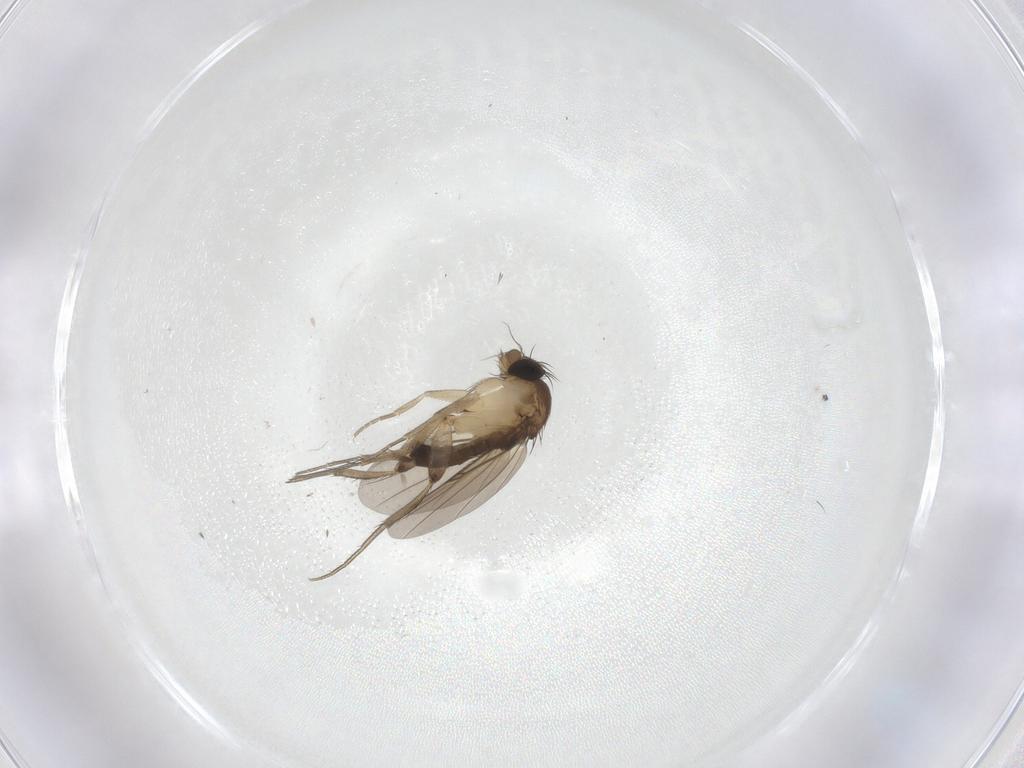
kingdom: Animalia
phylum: Arthropoda
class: Insecta
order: Diptera
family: Phoridae
